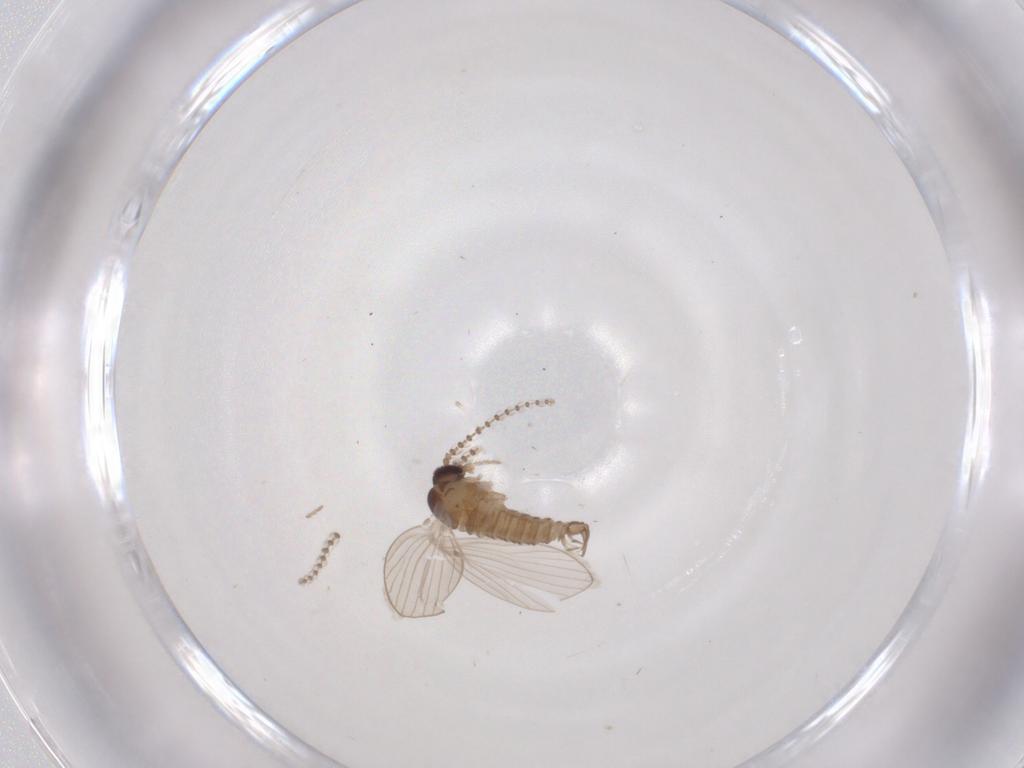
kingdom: Animalia
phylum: Arthropoda
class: Insecta
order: Diptera
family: Psychodidae
